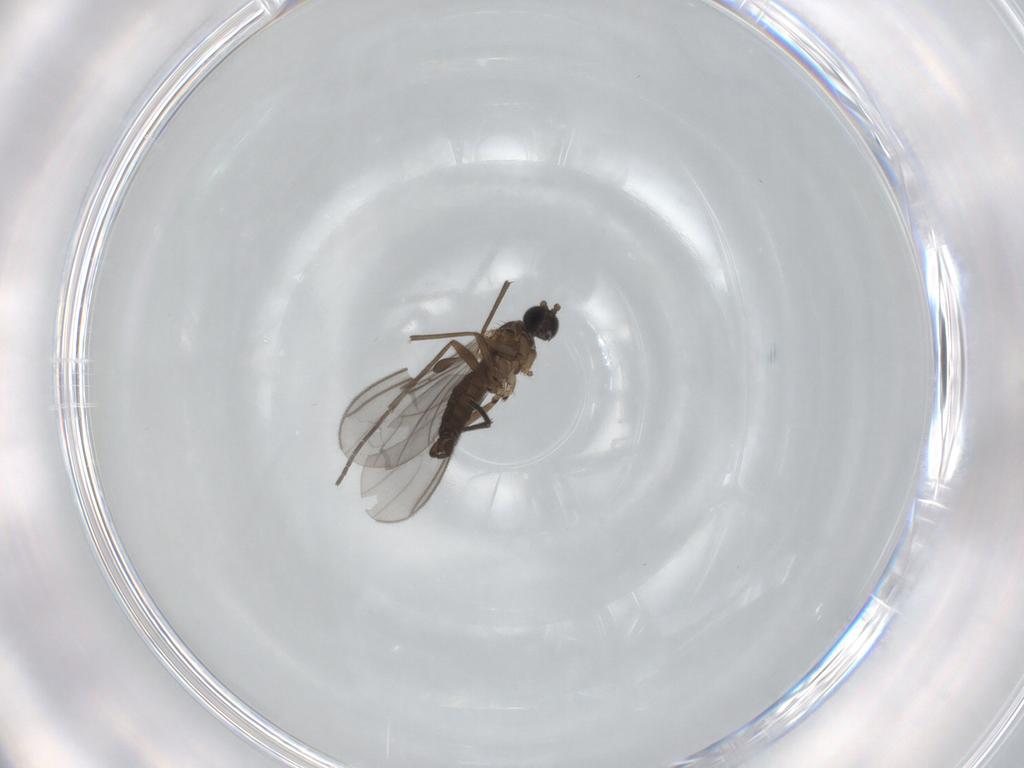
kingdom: Animalia
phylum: Arthropoda
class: Insecta
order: Diptera
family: Sciaridae
